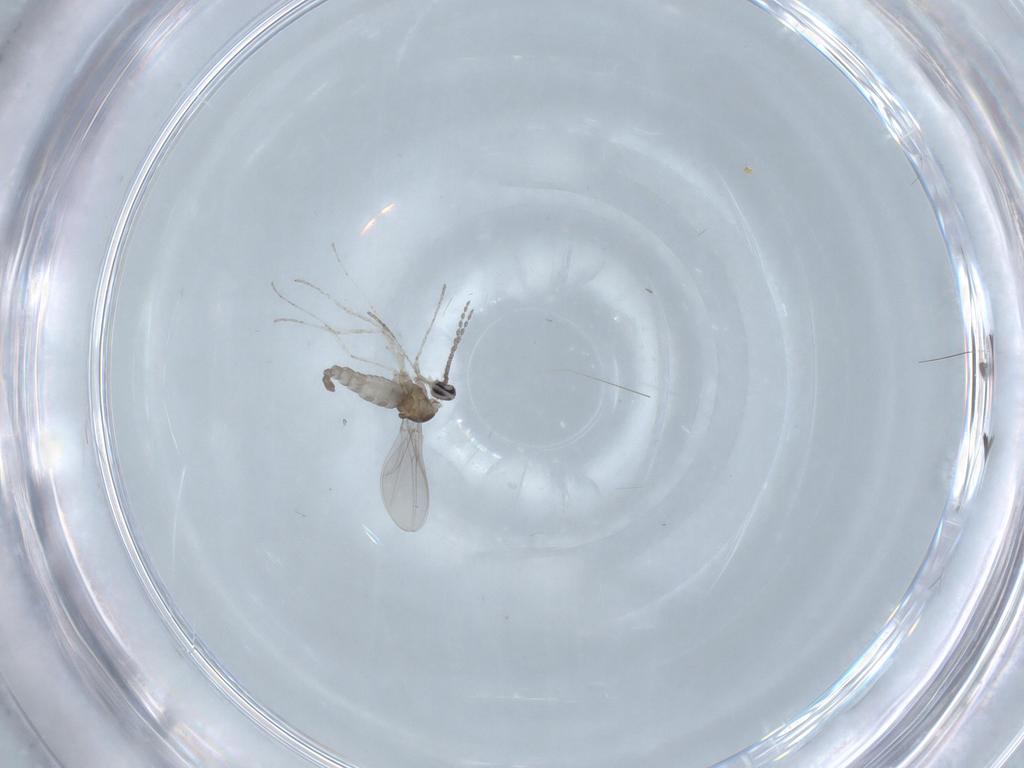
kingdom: Animalia
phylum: Arthropoda
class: Insecta
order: Diptera
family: Cecidomyiidae
